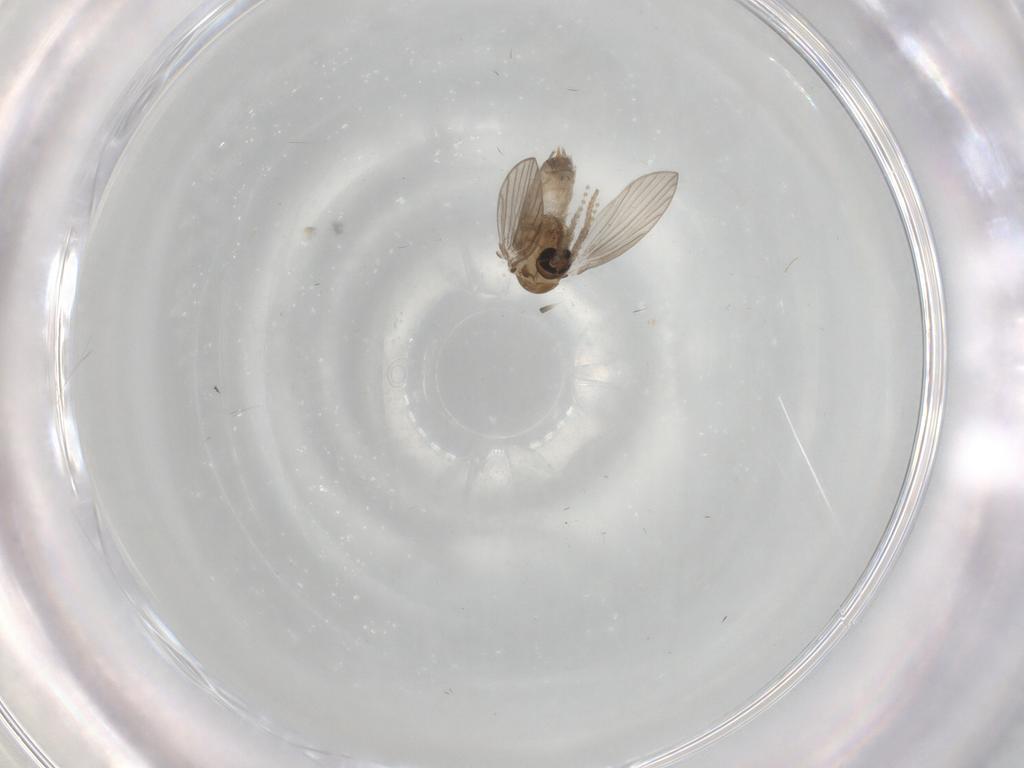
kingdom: Animalia
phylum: Arthropoda
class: Insecta
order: Diptera
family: Psychodidae
